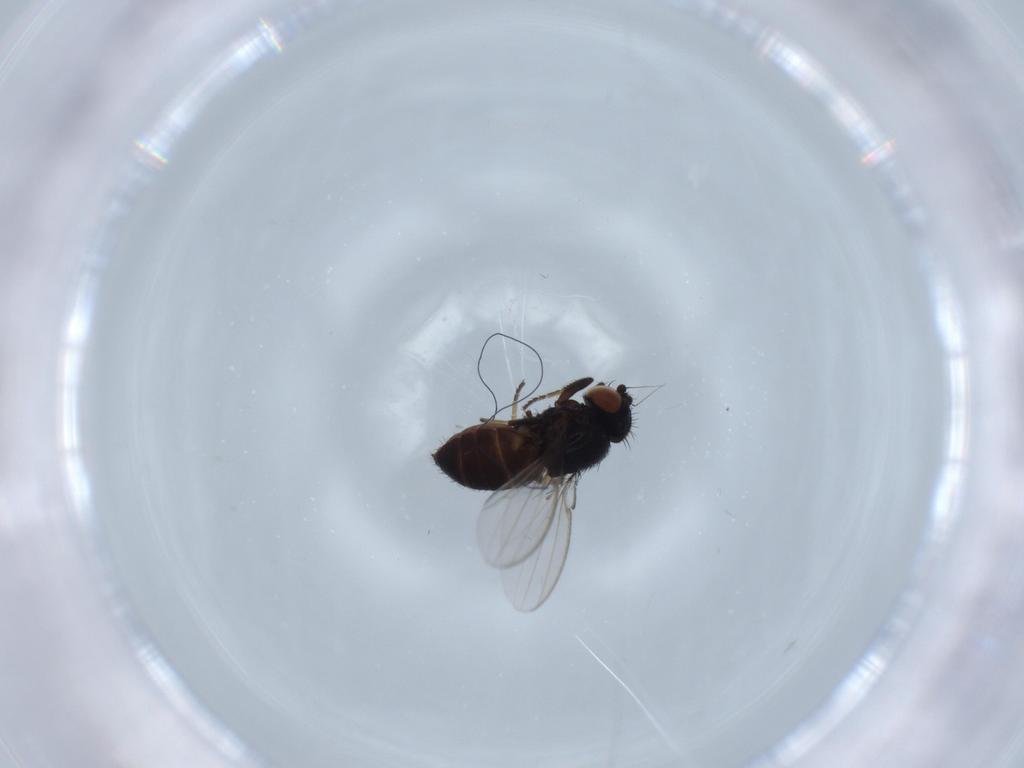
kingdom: Animalia
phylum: Arthropoda
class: Insecta
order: Diptera
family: Milichiidae
